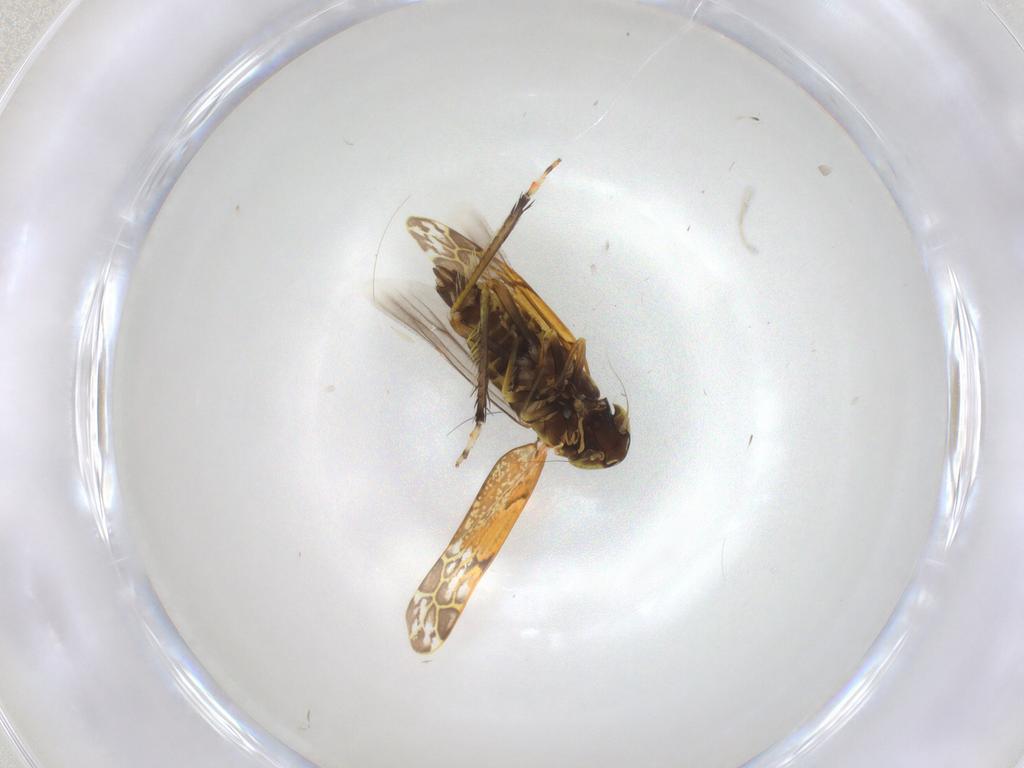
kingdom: Animalia
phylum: Arthropoda
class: Insecta
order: Hemiptera
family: Cicadellidae
